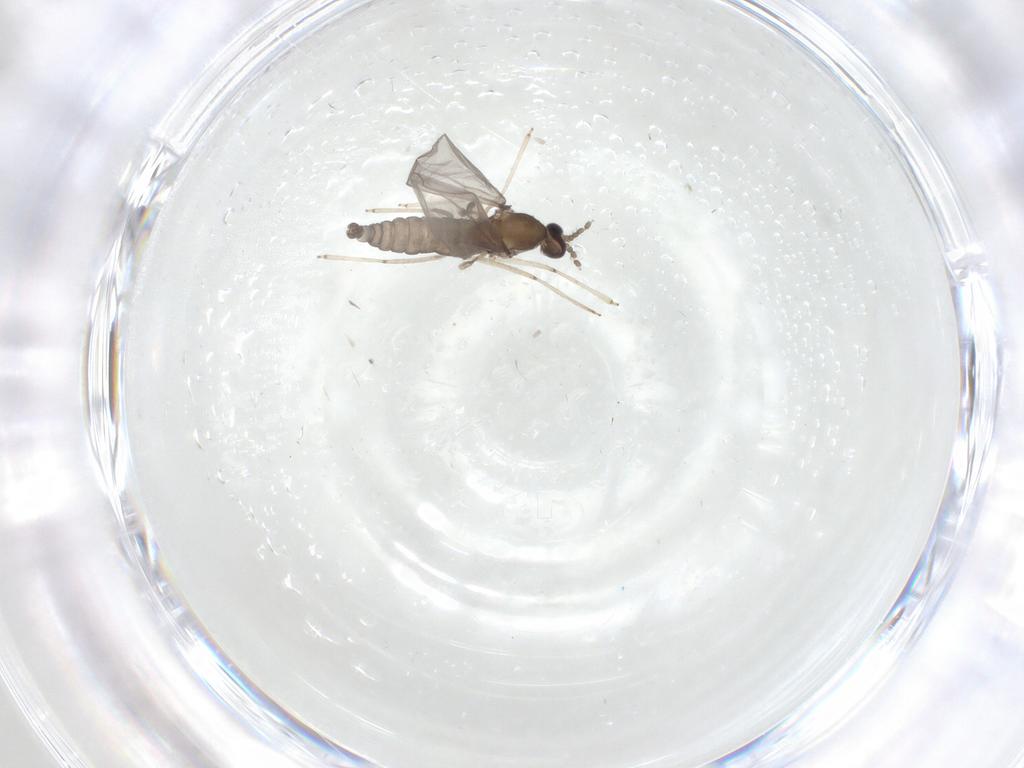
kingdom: Animalia
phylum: Arthropoda
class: Insecta
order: Diptera
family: Cecidomyiidae
